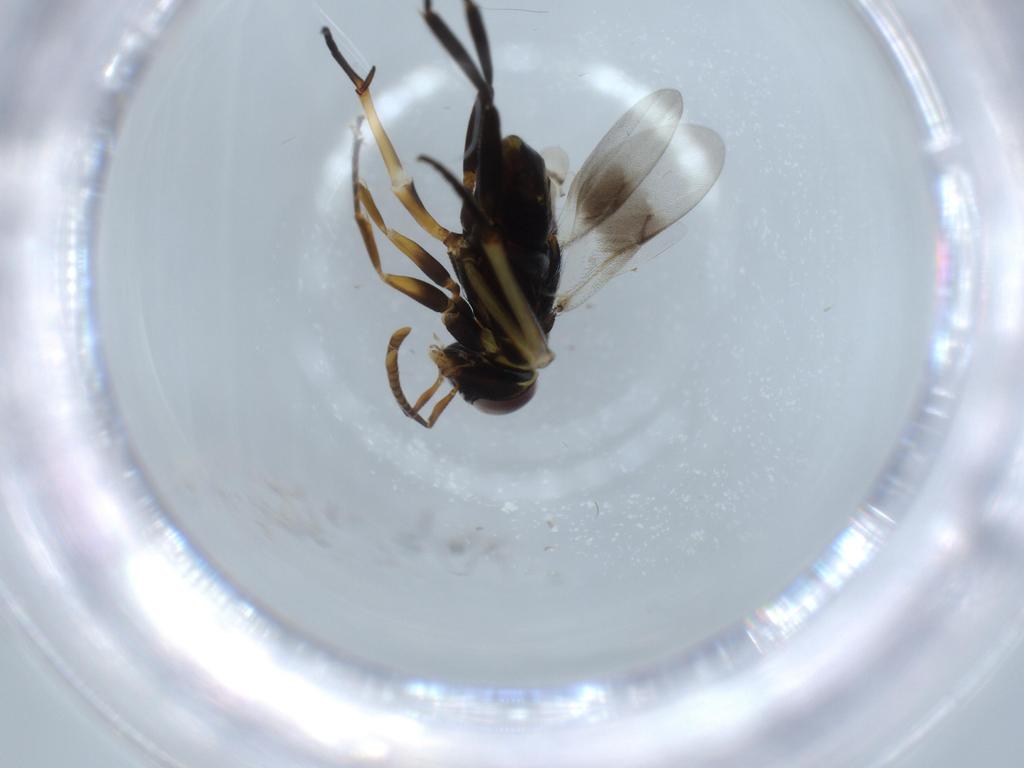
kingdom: Animalia
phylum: Arthropoda
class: Insecta
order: Hymenoptera
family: Scelionidae
